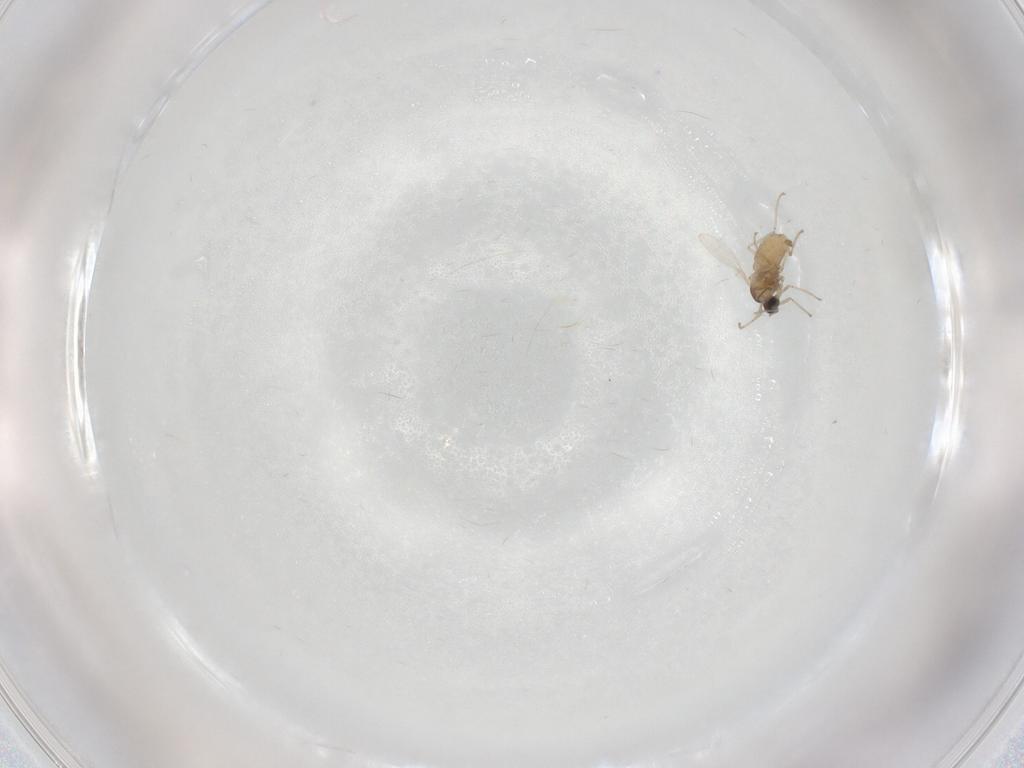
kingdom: Animalia
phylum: Arthropoda
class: Insecta
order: Diptera
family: Cecidomyiidae
